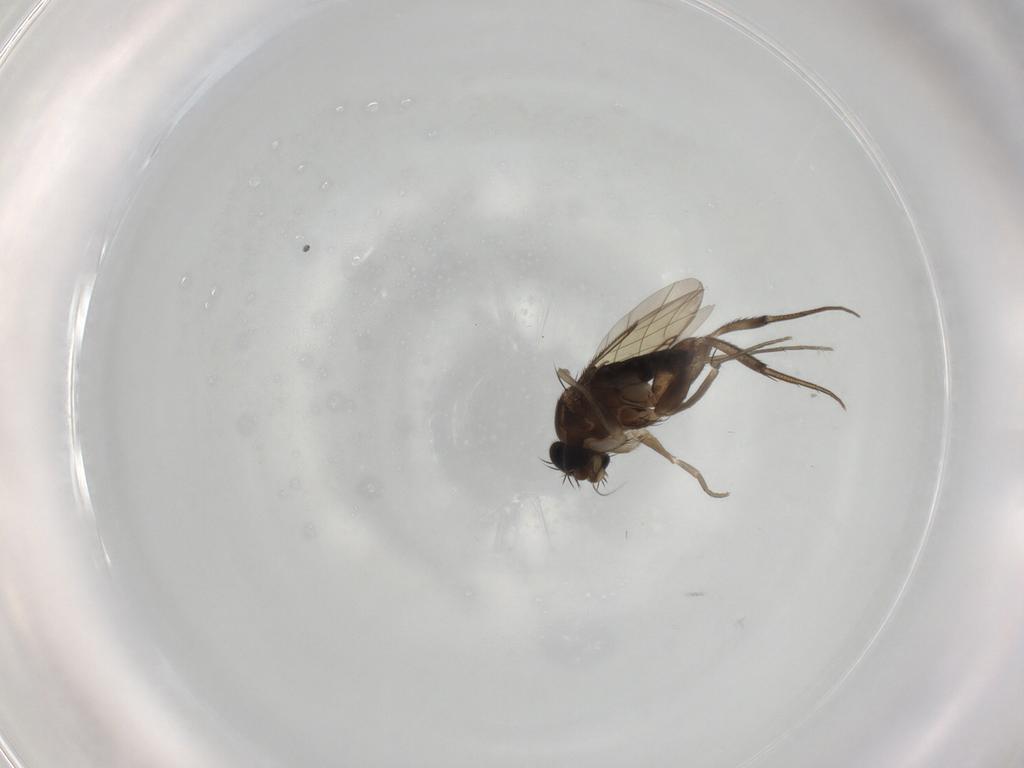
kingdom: Animalia
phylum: Arthropoda
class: Insecta
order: Diptera
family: Phoridae
